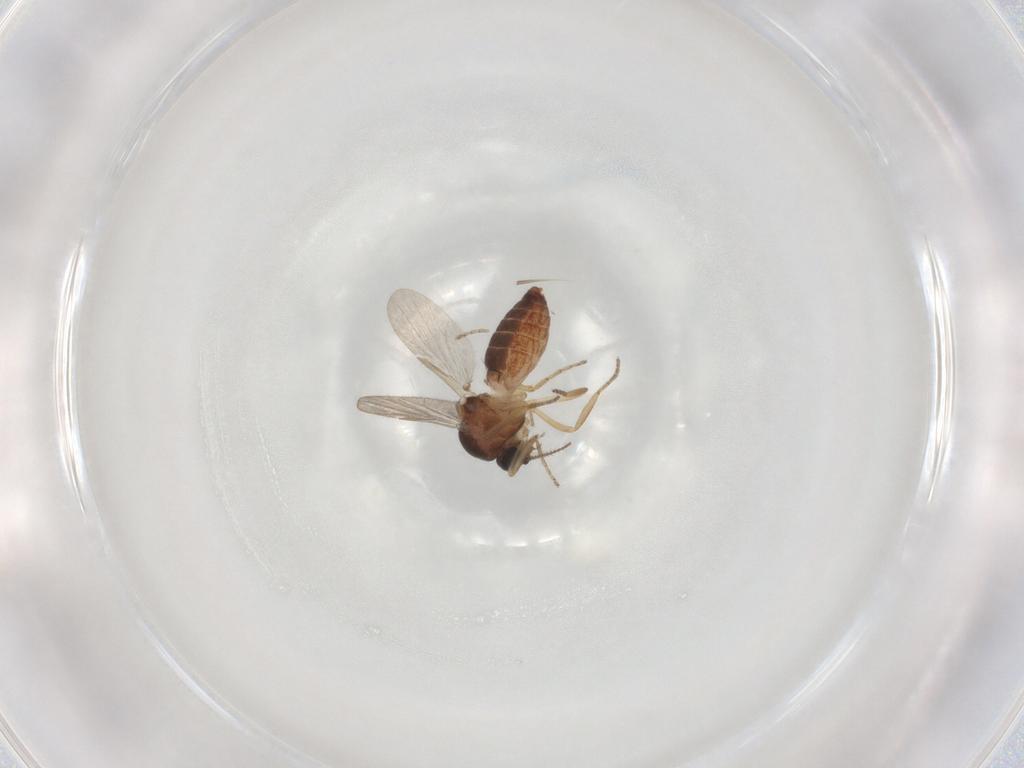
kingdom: Animalia
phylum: Arthropoda
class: Insecta
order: Diptera
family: Ceratopogonidae
